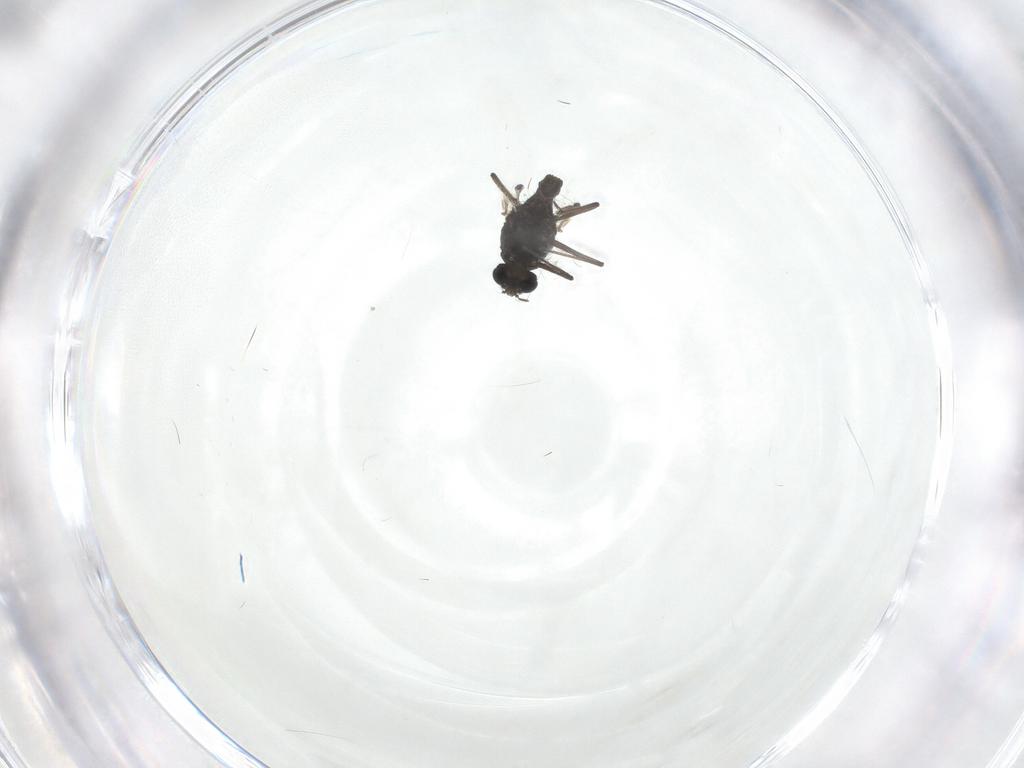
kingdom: Animalia
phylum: Arthropoda
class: Insecta
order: Diptera
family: Chironomidae
